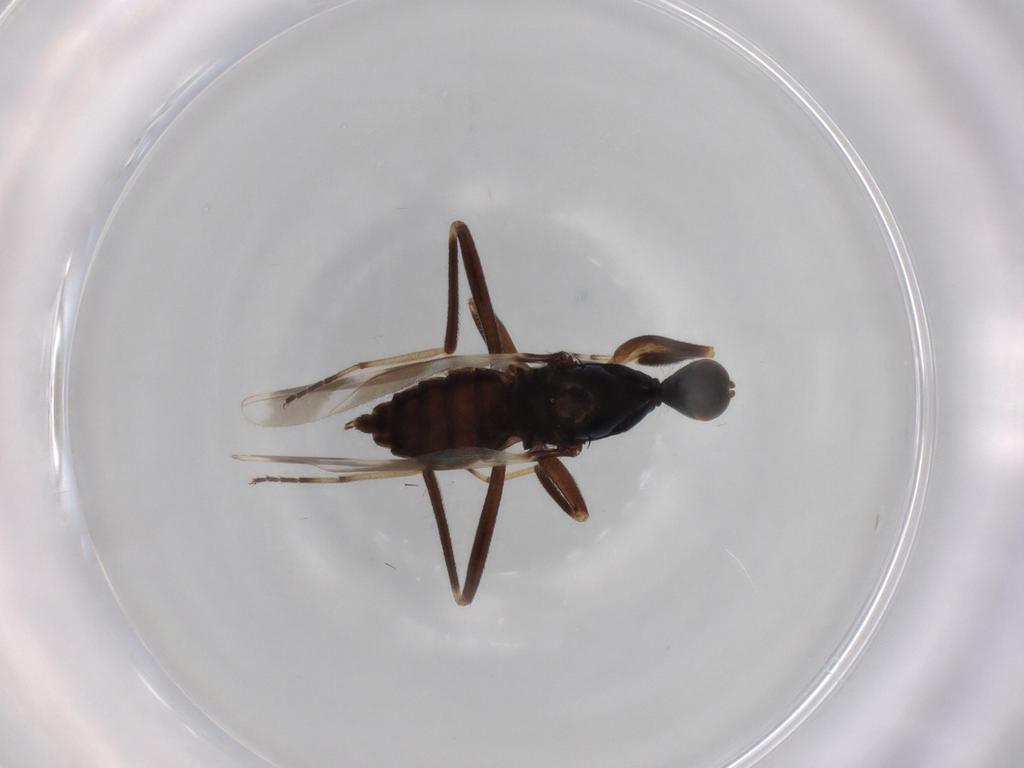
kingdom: Animalia
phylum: Arthropoda
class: Insecta
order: Diptera
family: Hybotidae
